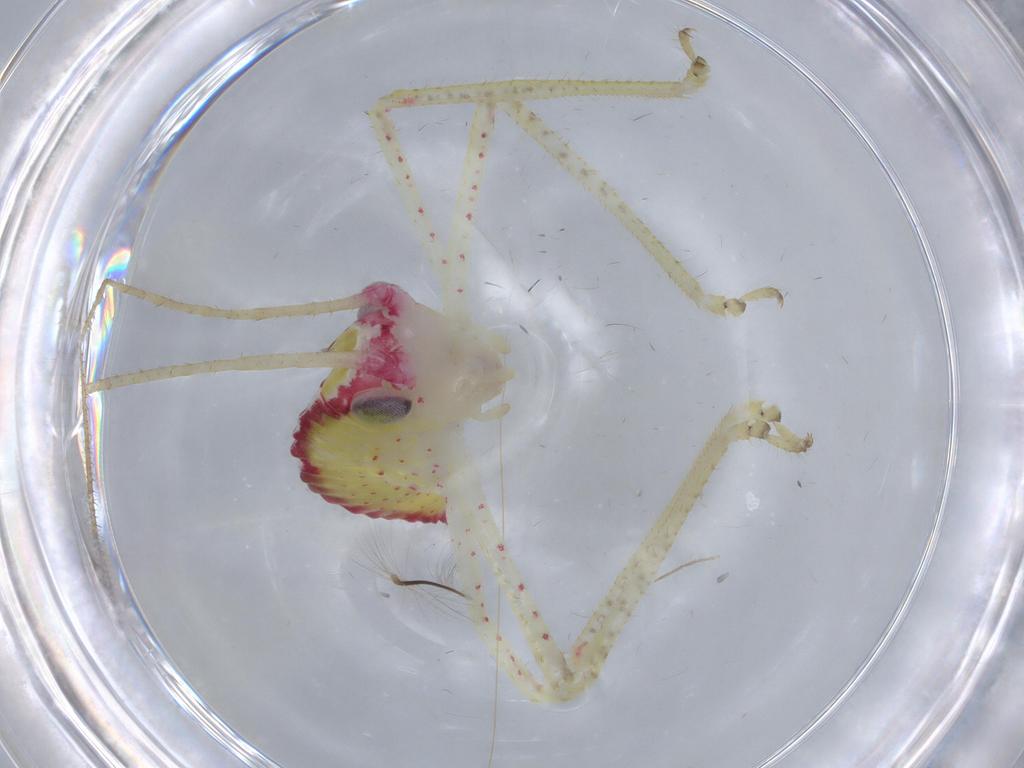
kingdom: Animalia
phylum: Arthropoda
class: Insecta
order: Orthoptera
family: Tettigoniidae
